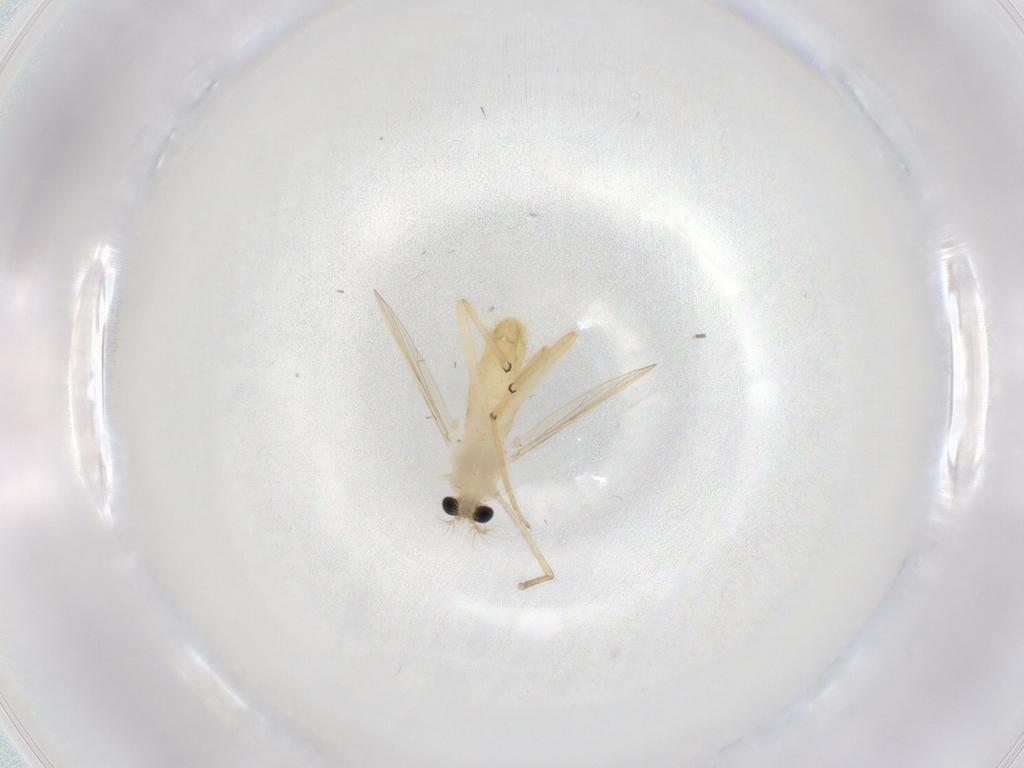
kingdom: Animalia
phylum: Arthropoda
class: Insecta
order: Diptera
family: Chironomidae
